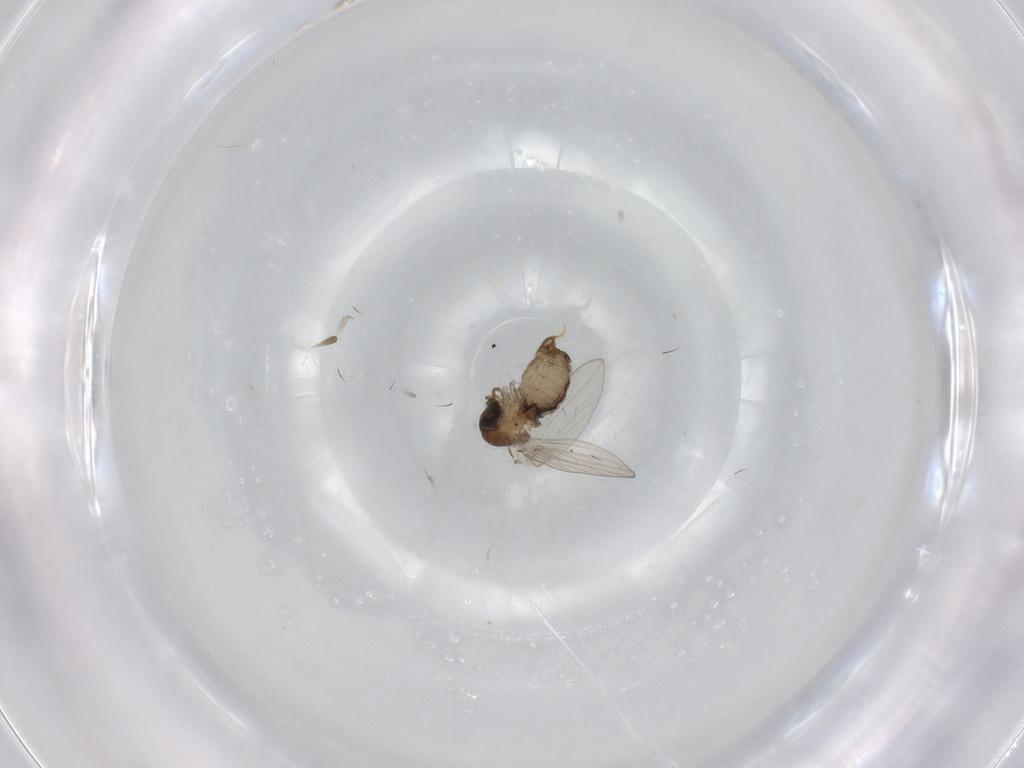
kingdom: Animalia
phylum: Arthropoda
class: Insecta
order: Diptera
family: Psychodidae
